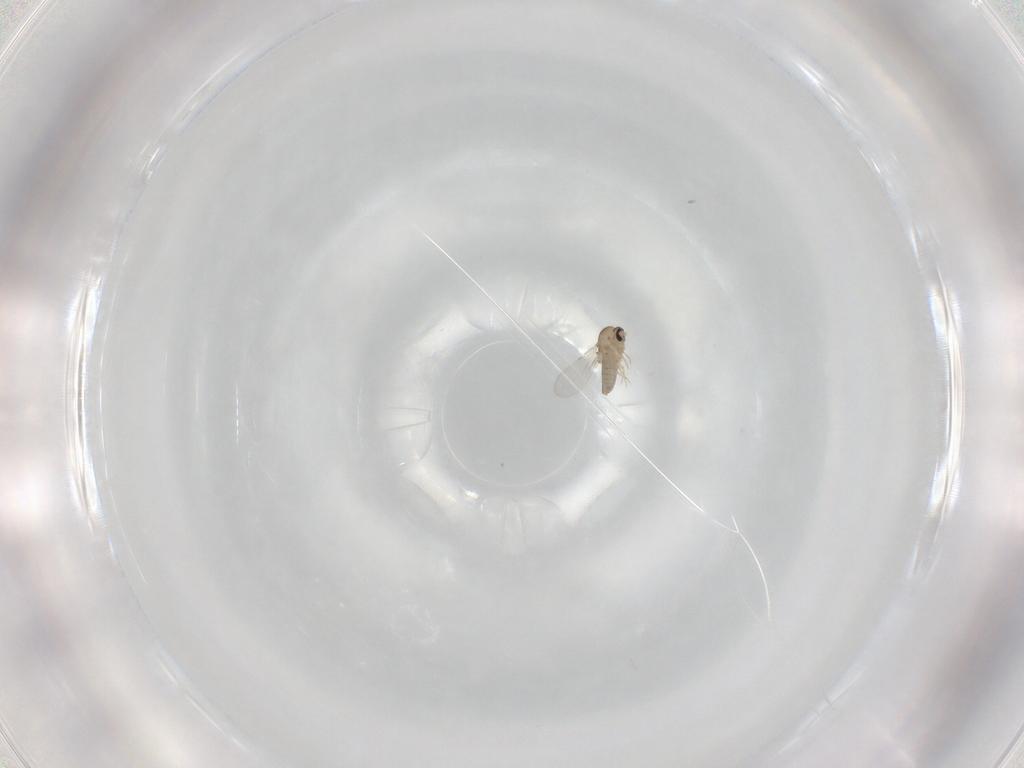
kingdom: Animalia
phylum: Arthropoda
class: Insecta
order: Diptera
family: Ceratopogonidae
